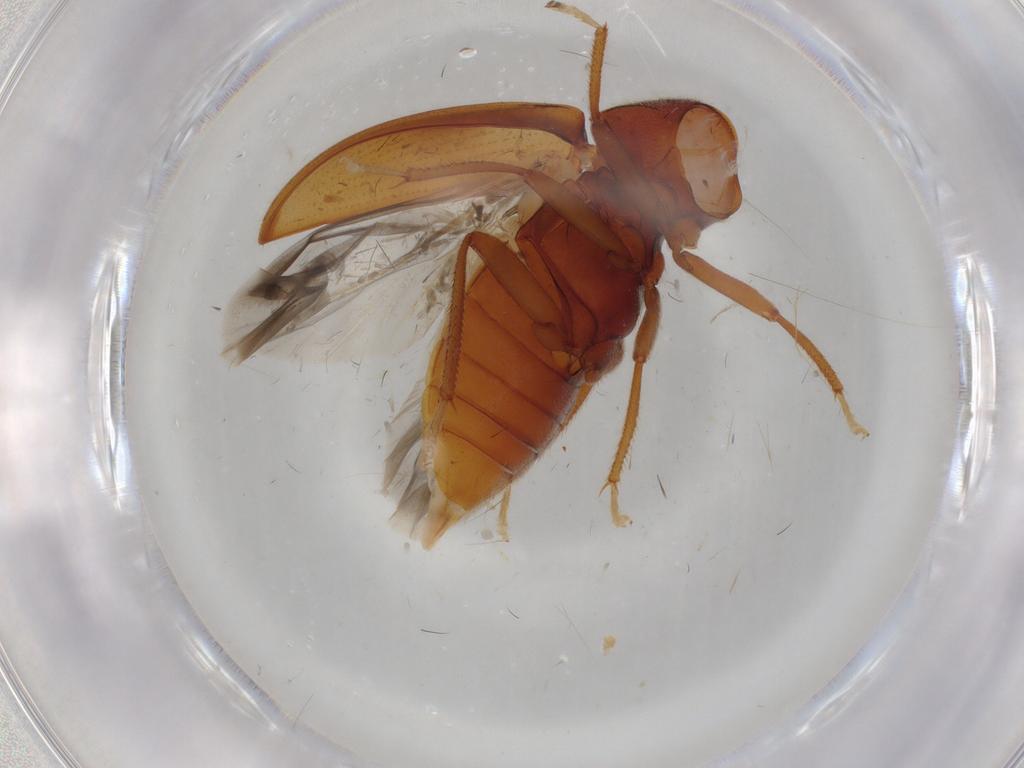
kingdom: Animalia
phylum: Arthropoda
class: Insecta
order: Coleoptera
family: Ptilodactylidae
